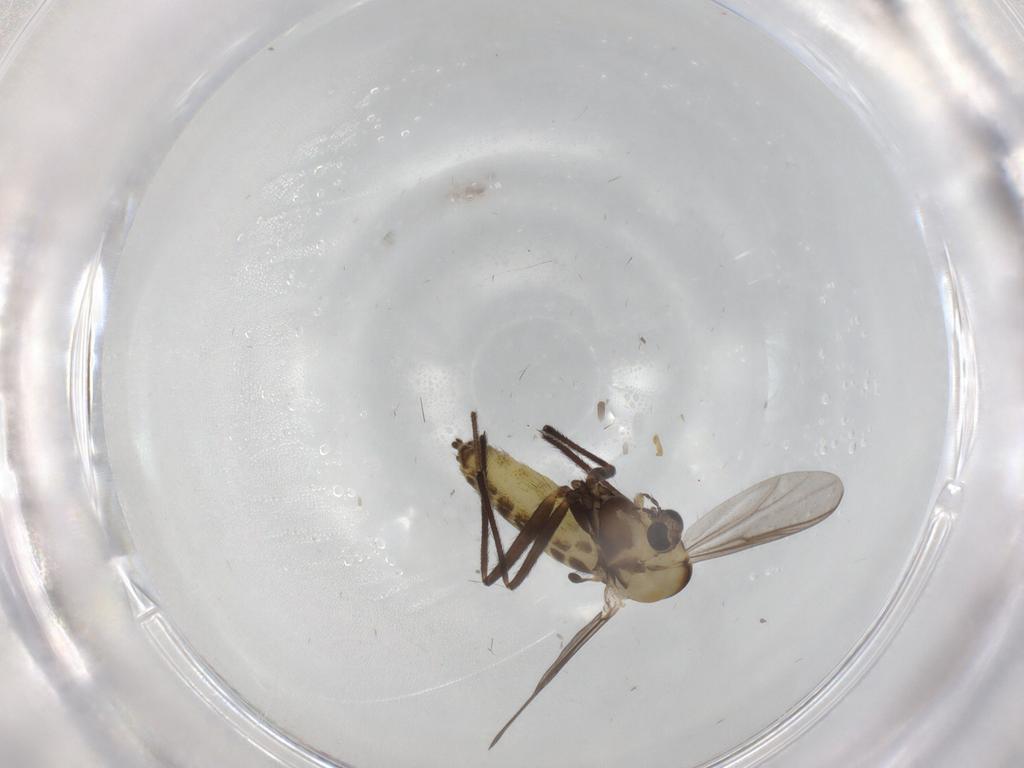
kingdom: Animalia
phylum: Arthropoda
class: Insecta
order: Diptera
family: Chironomidae
